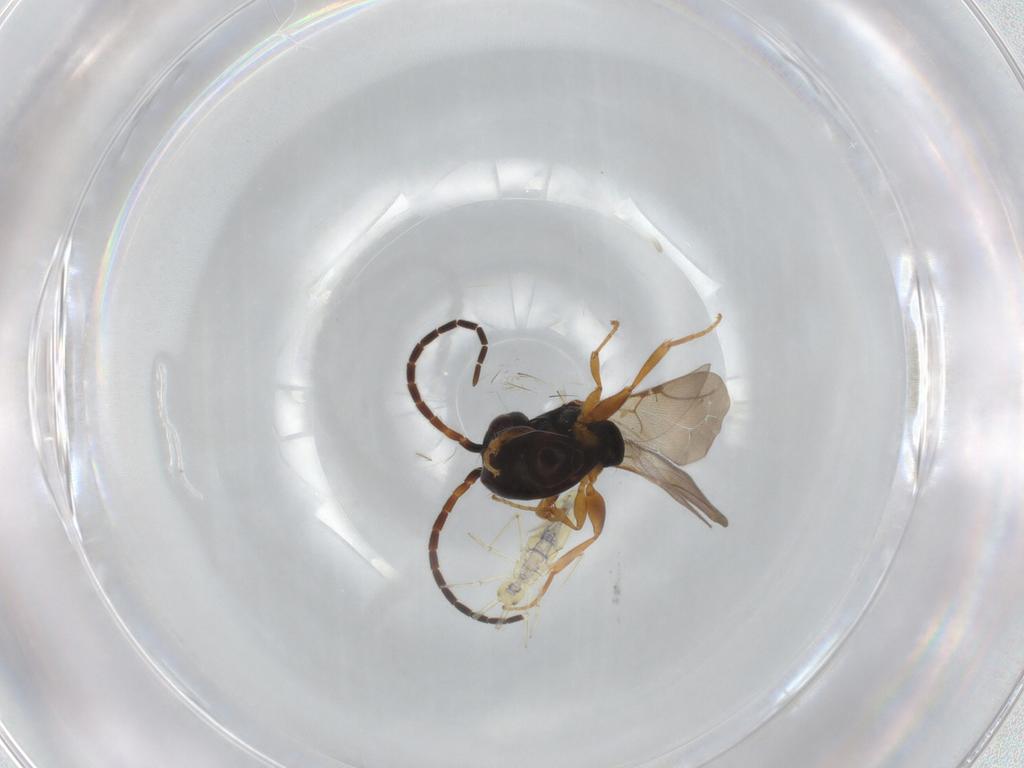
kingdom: Animalia
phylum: Arthropoda
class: Insecta
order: Hymenoptera
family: Bethylidae
